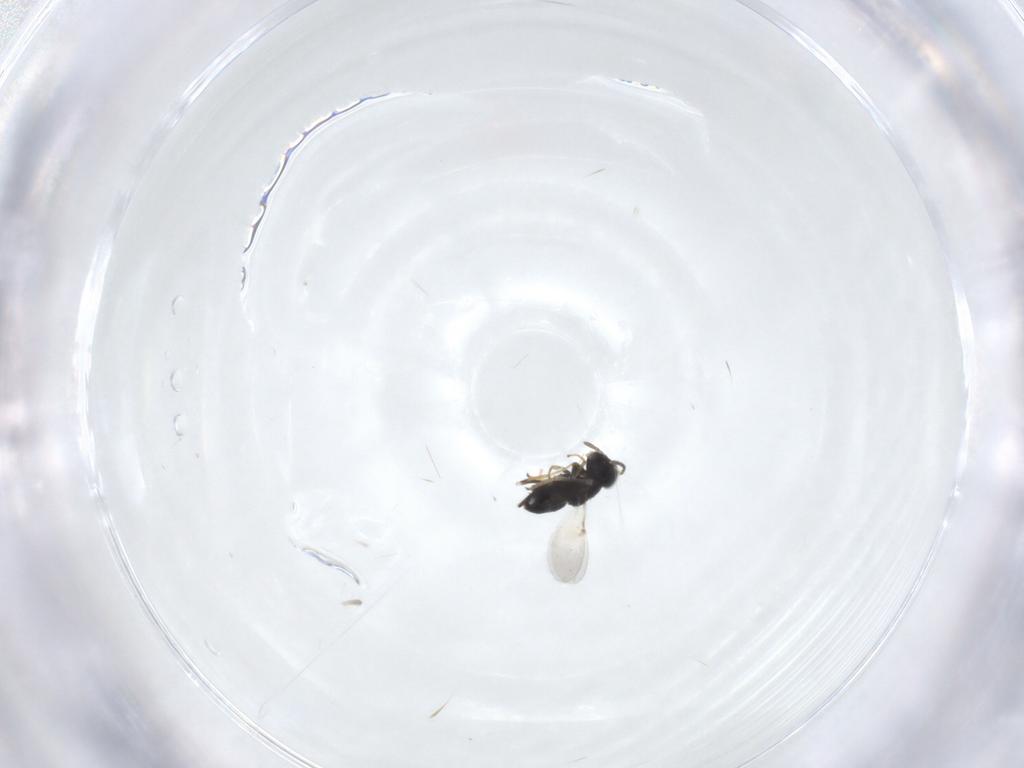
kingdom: Animalia
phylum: Arthropoda
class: Insecta
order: Hymenoptera
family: Encyrtidae
